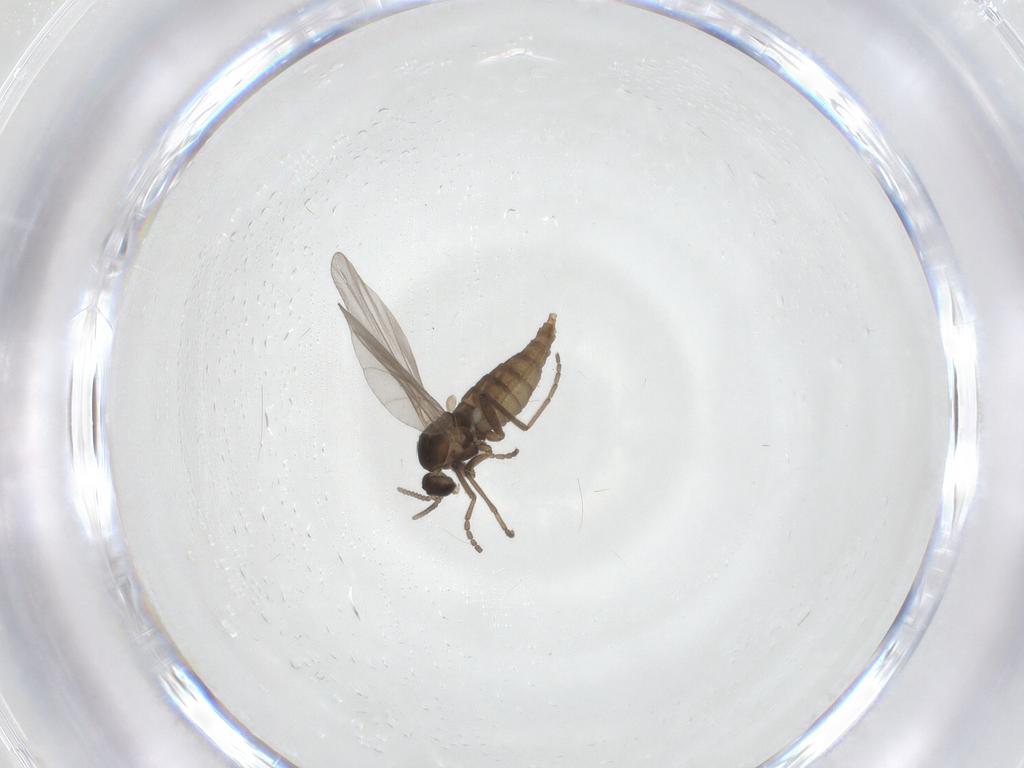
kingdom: Animalia
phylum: Arthropoda
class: Insecta
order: Diptera
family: Cecidomyiidae
